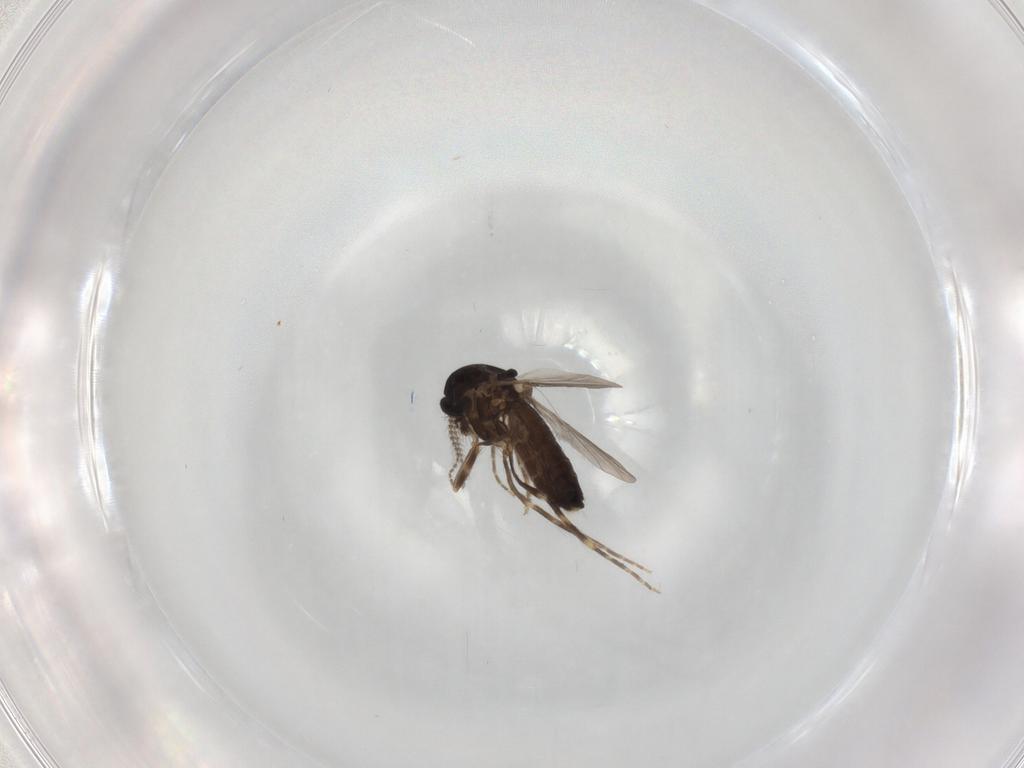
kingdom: Animalia
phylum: Arthropoda
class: Insecta
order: Diptera
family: Ceratopogonidae
